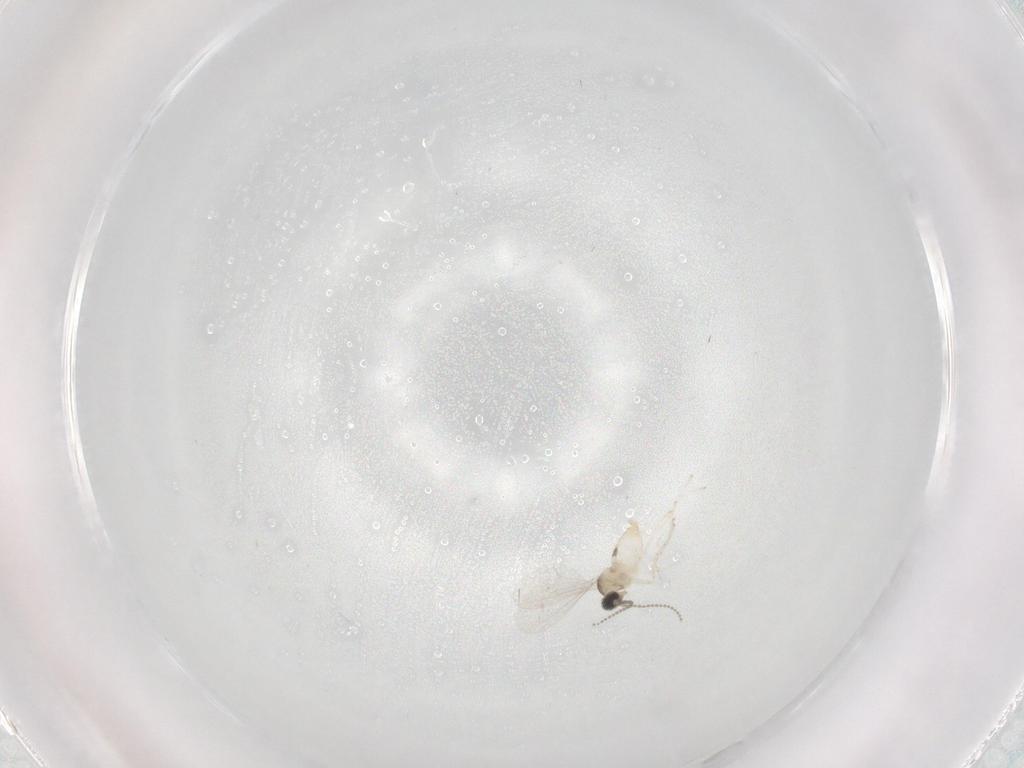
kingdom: Animalia
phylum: Arthropoda
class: Insecta
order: Diptera
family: Cecidomyiidae
